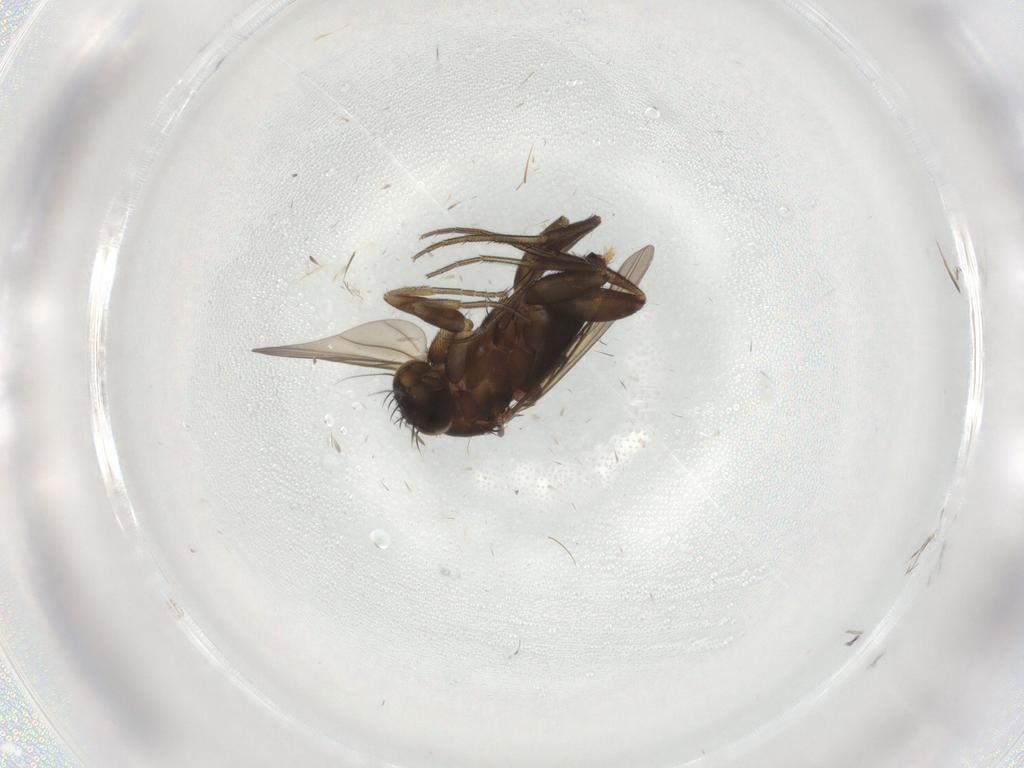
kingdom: Animalia
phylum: Arthropoda
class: Insecta
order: Diptera
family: Phoridae
